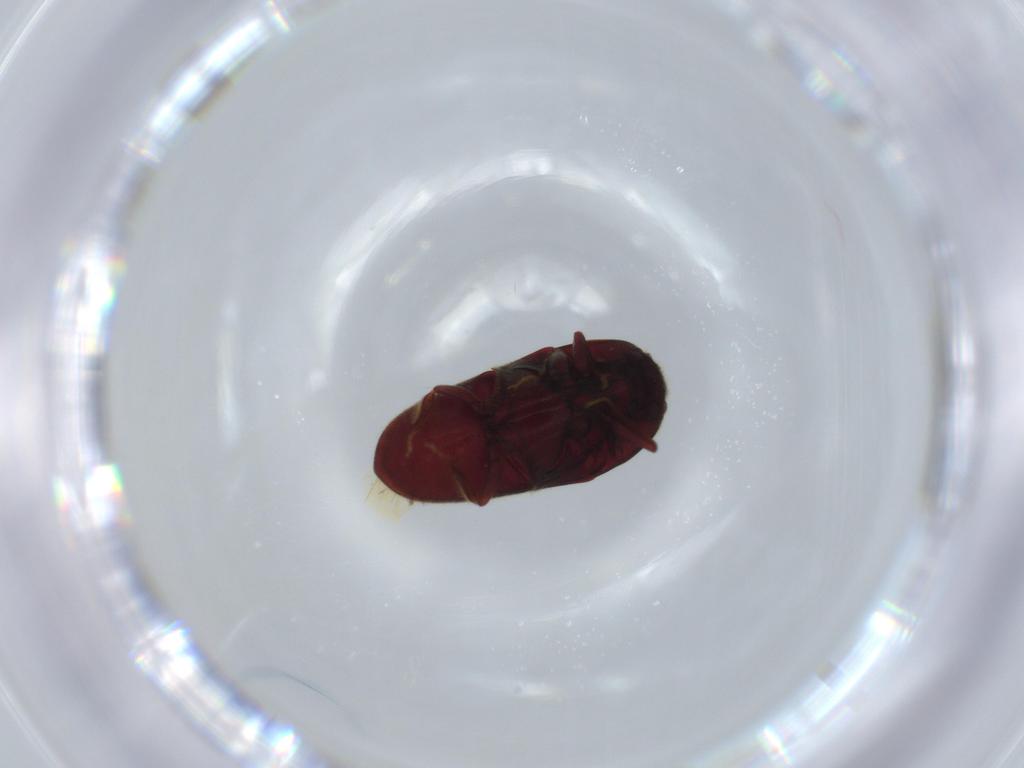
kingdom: Animalia
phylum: Arthropoda
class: Insecta
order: Coleoptera
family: Throscidae
